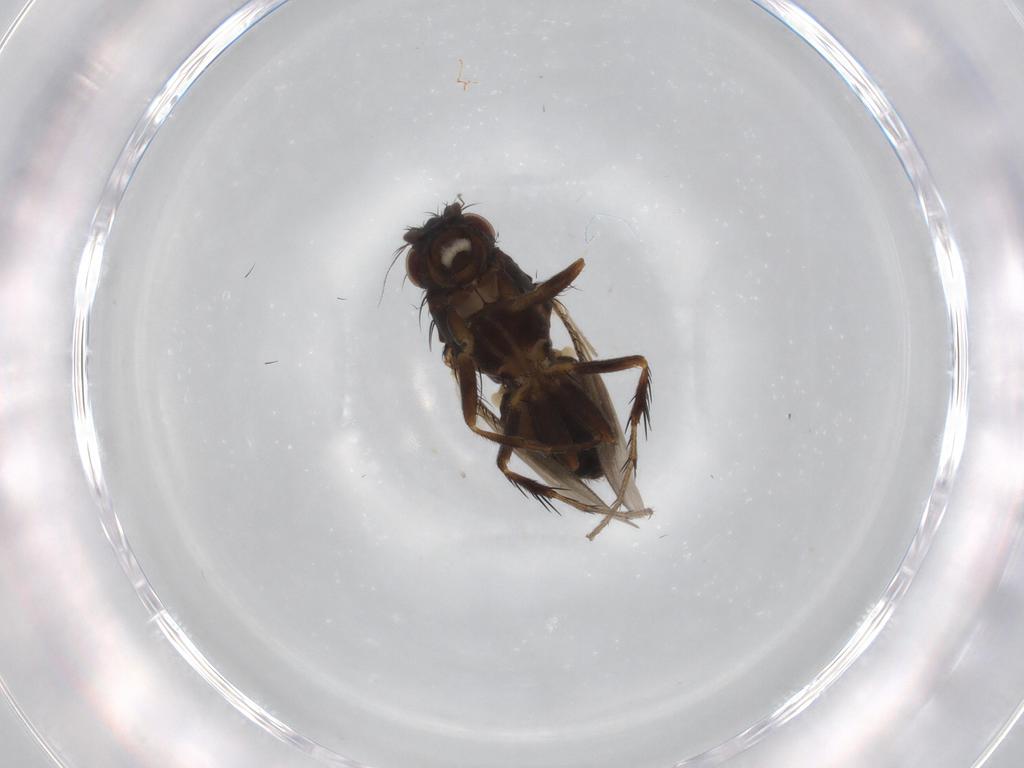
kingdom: Animalia
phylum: Arthropoda
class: Insecta
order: Diptera
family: Sphaeroceridae
